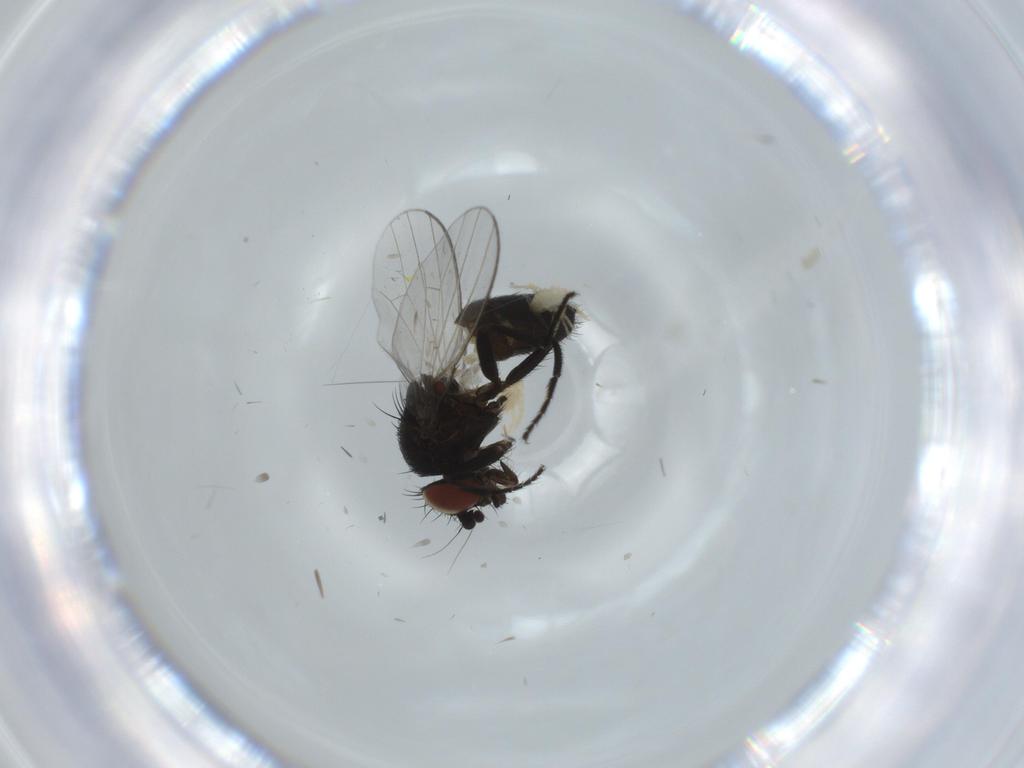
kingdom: Animalia
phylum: Arthropoda
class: Insecta
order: Diptera
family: Milichiidae
